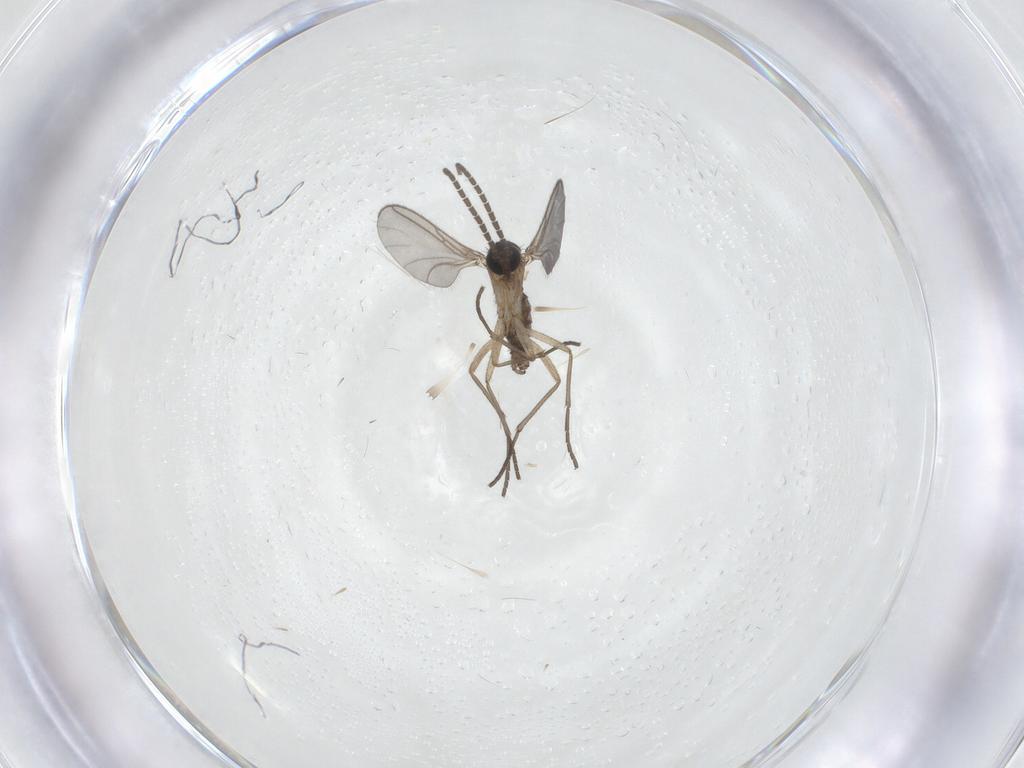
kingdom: Animalia
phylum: Arthropoda
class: Insecta
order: Diptera
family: Sciaridae
